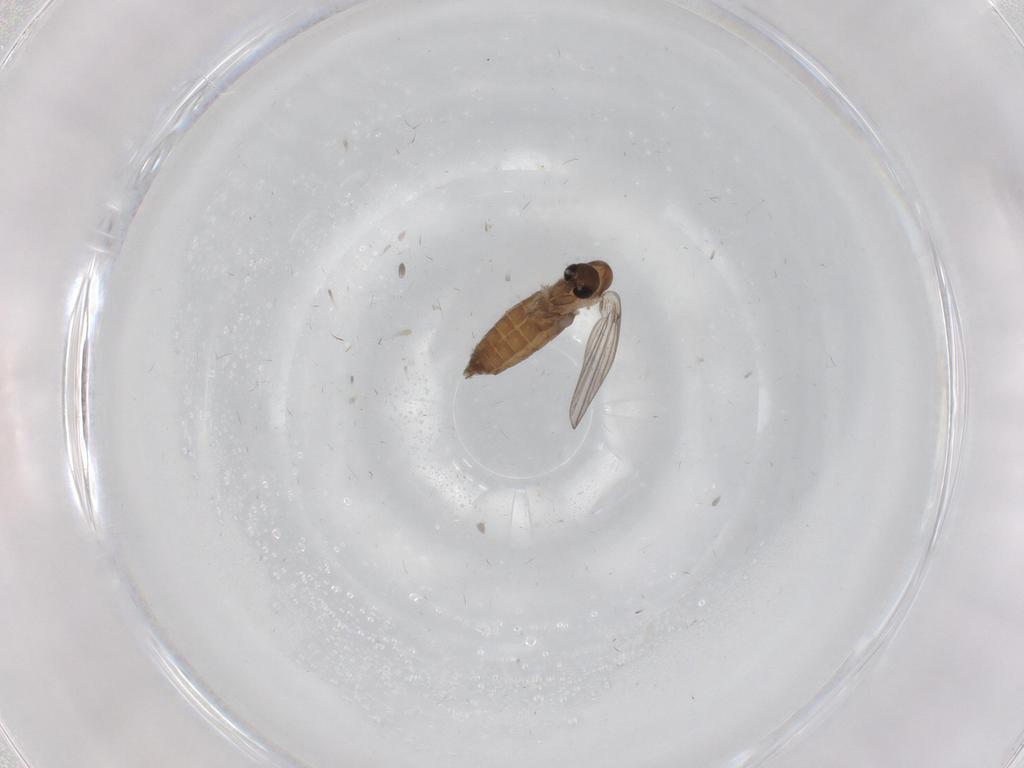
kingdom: Animalia
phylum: Arthropoda
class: Insecta
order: Diptera
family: Psychodidae
